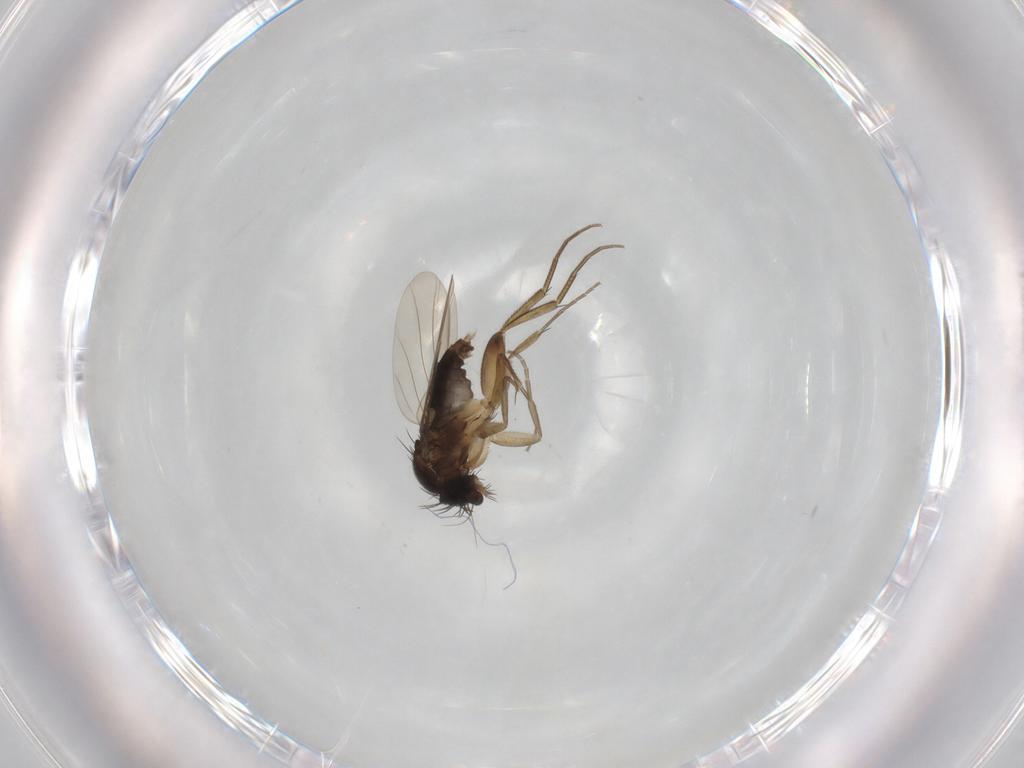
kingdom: Animalia
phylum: Arthropoda
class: Insecta
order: Diptera
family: Phoridae
